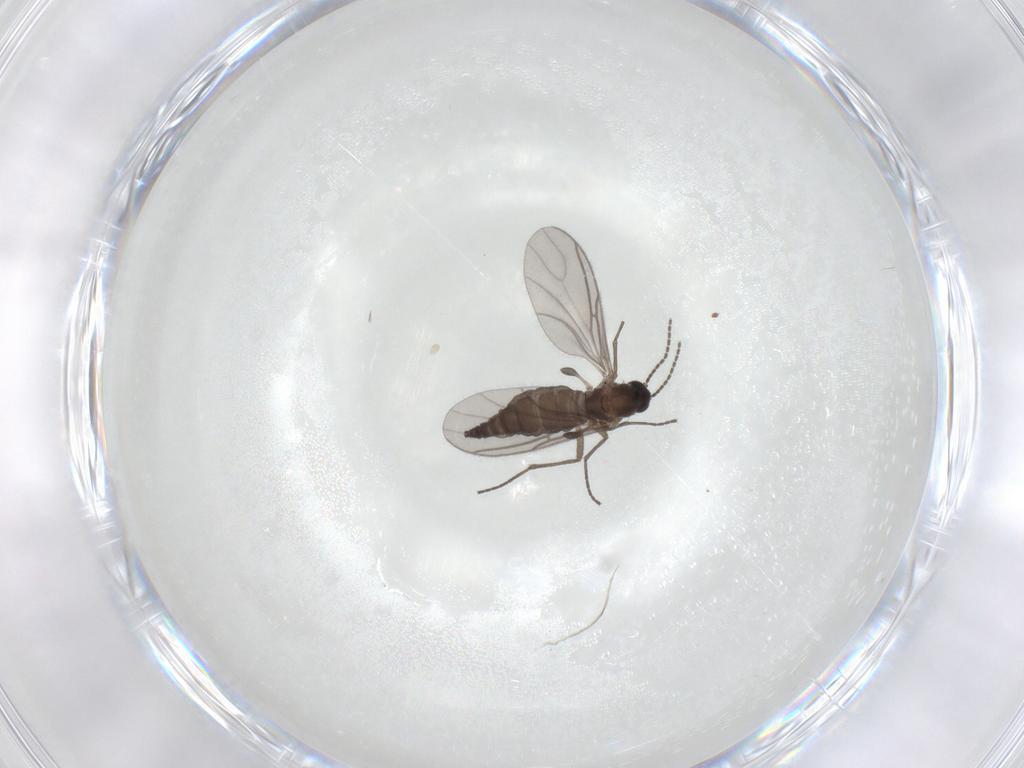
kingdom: Animalia
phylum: Arthropoda
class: Insecta
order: Diptera
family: Sciaridae
